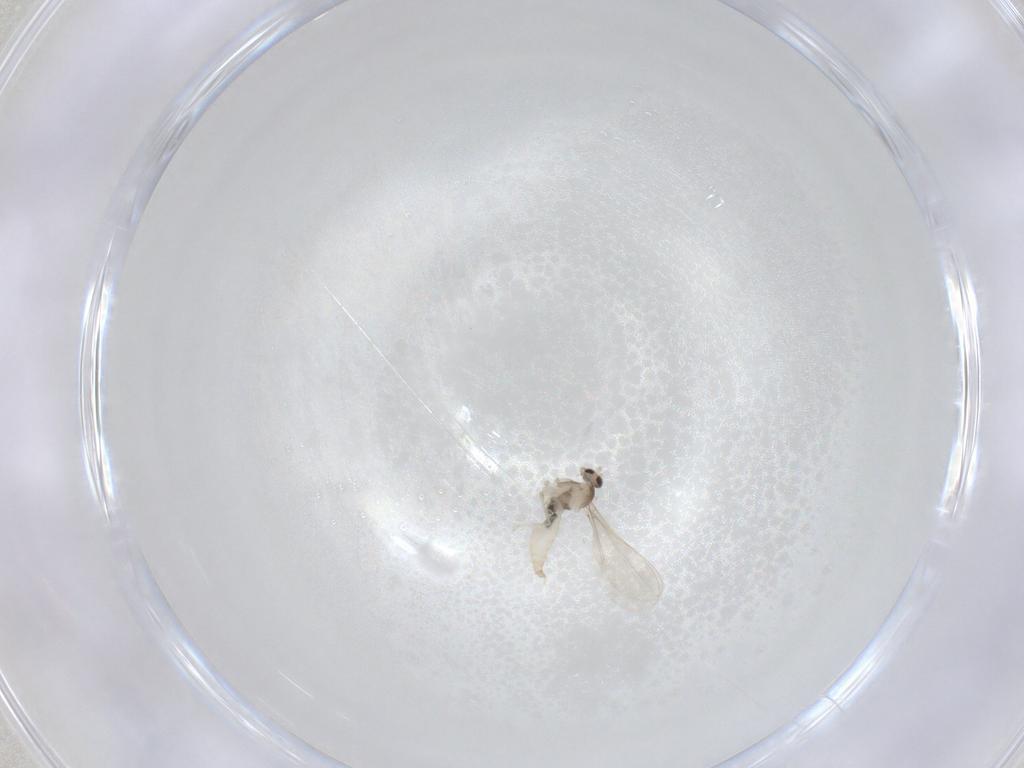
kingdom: Animalia
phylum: Arthropoda
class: Insecta
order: Diptera
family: Cecidomyiidae
